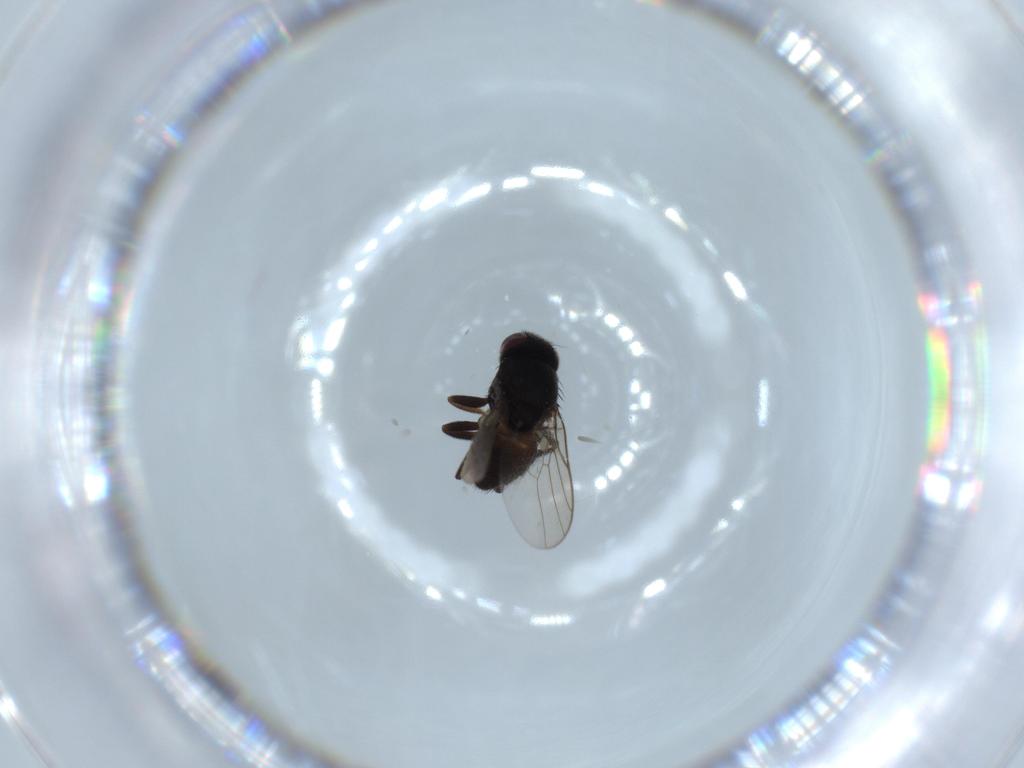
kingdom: Animalia
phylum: Arthropoda
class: Insecta
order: Diptera
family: Chloropidae
